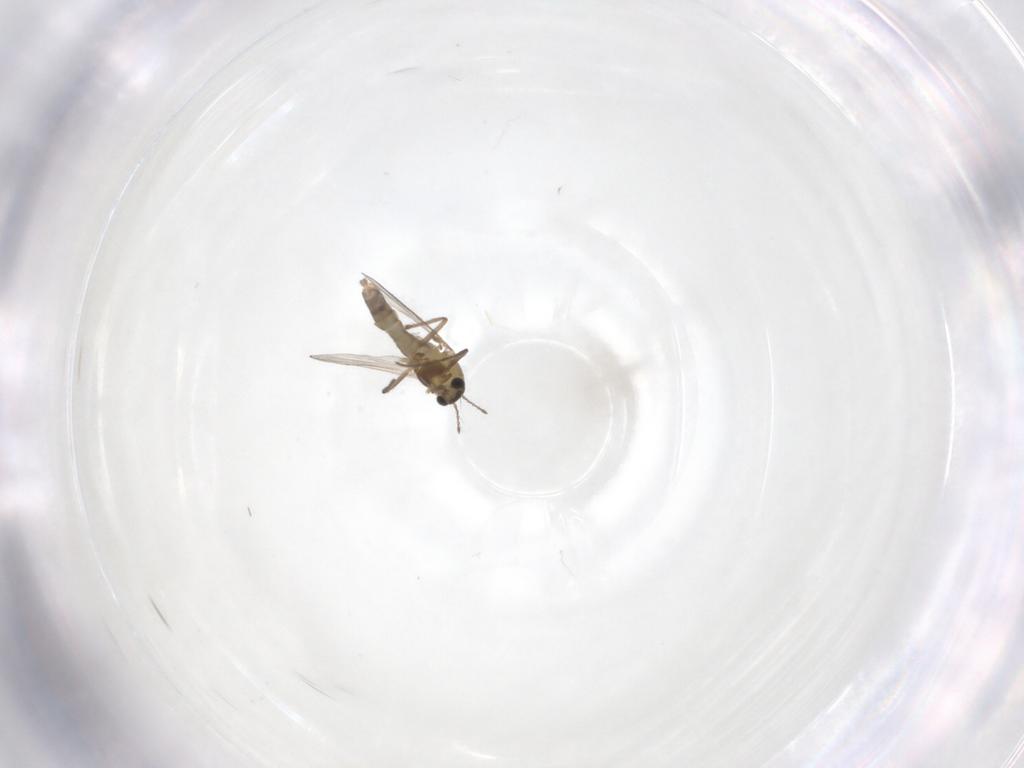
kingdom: Animalia
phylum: Arthropoda
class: Insecta
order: Diptera
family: Chironomidae
